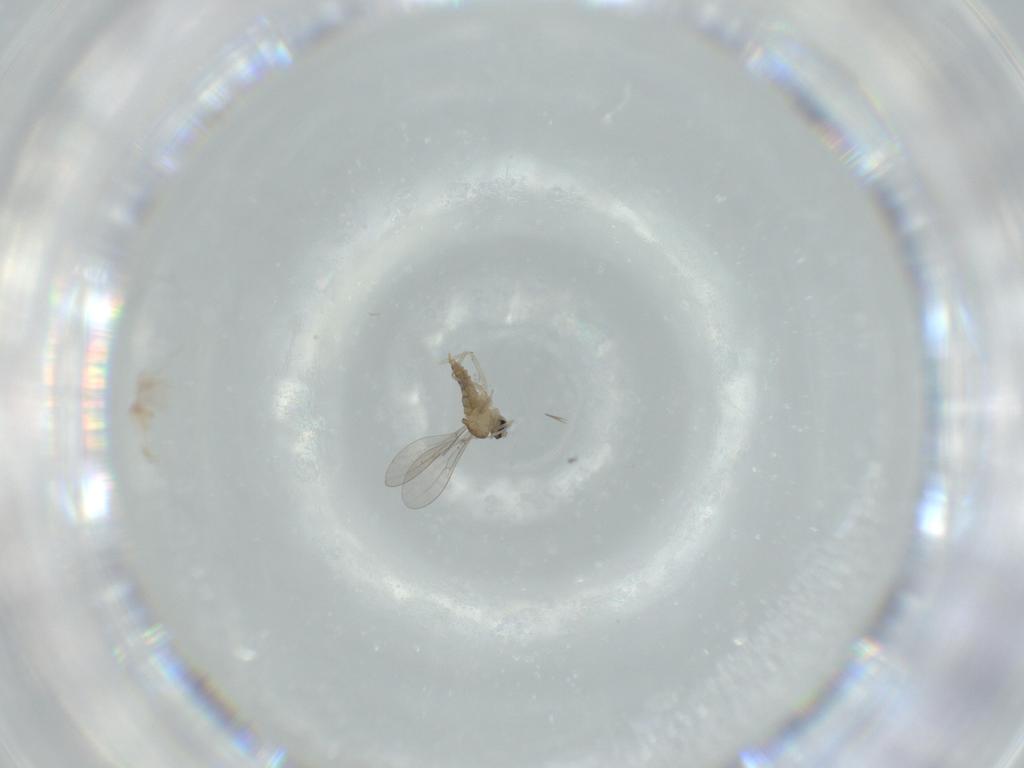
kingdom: Animalia
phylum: Arthropoda
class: Insecta
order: Diptera
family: Cecidomyiidae
